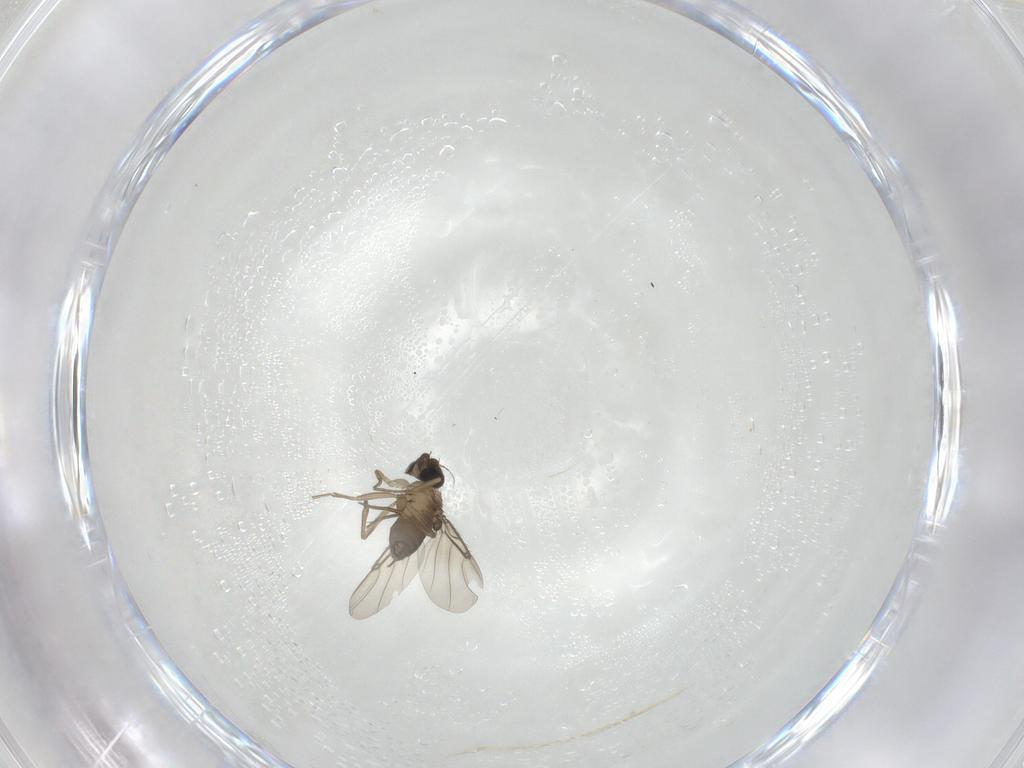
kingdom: Animalia
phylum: Arthropoda
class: Insecta
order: Diptera
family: Phoridae
